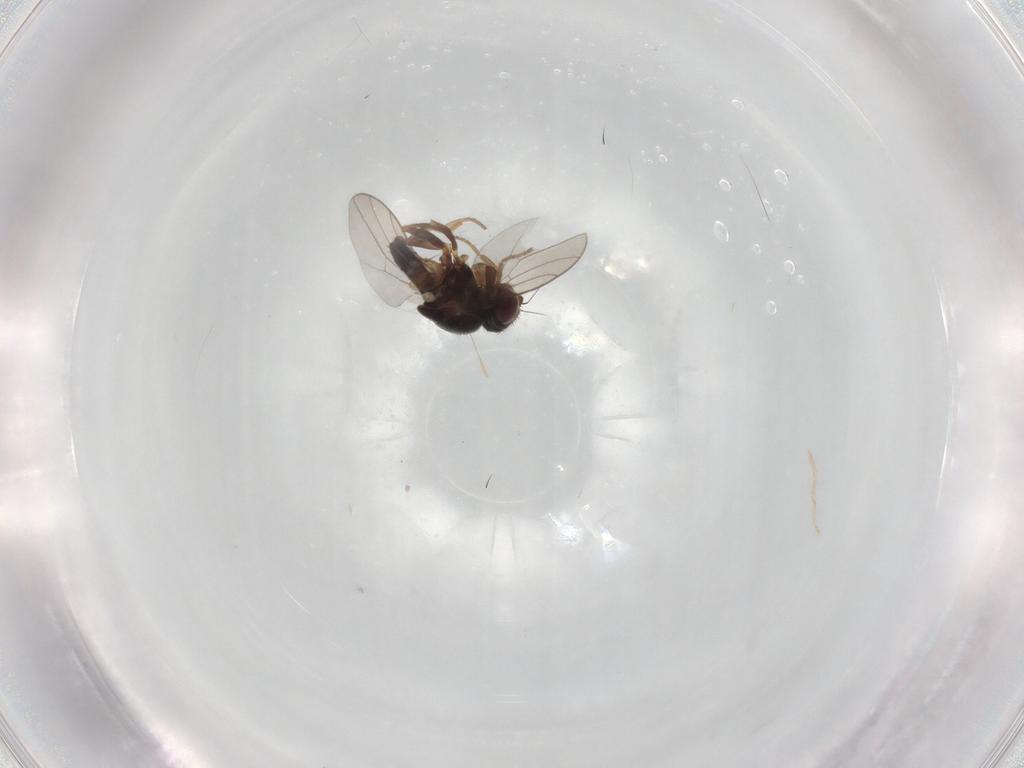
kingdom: Animalia
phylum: Arthropoda
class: Insecta
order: Diptera
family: Chloropidae
